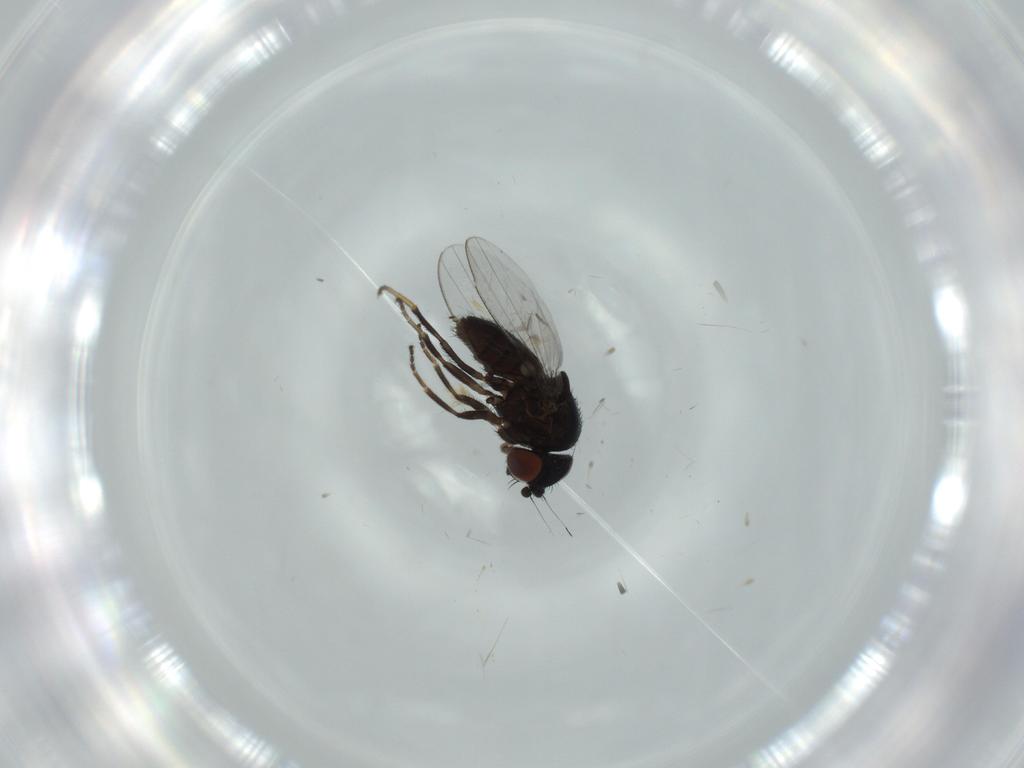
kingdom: Animalia
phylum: Arthropoda
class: Insecta
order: Diptera
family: Milichiidae
